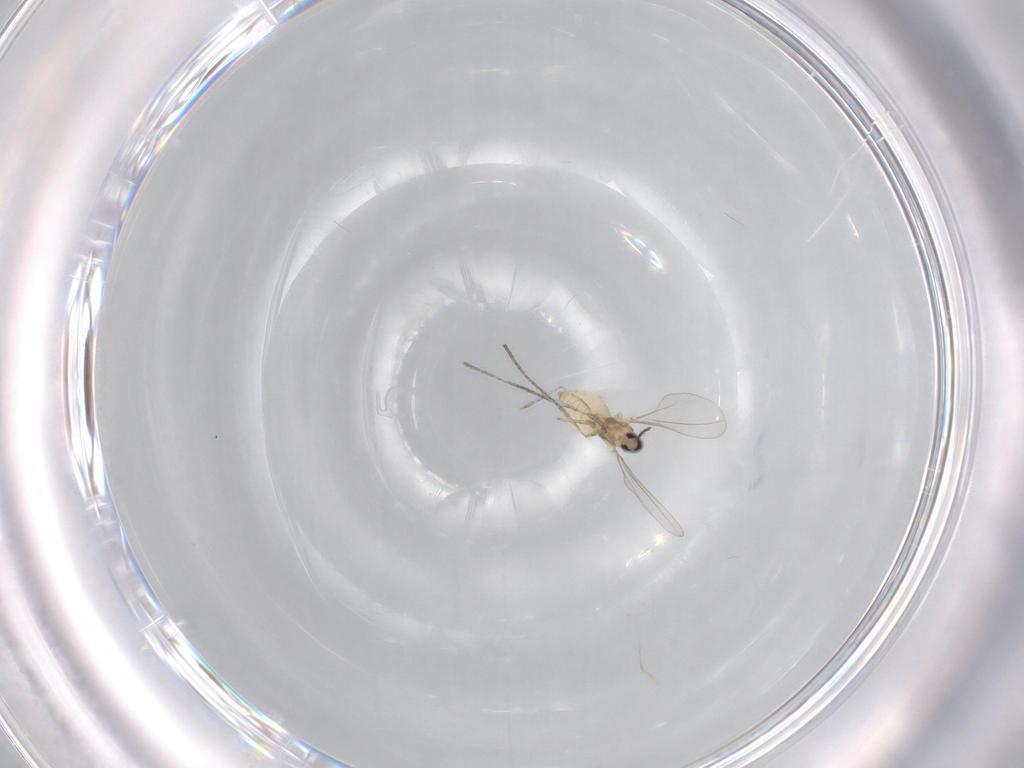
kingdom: Animalia
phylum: Arthropoda
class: Insecta
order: Diptera
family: Cecidomyiidae
